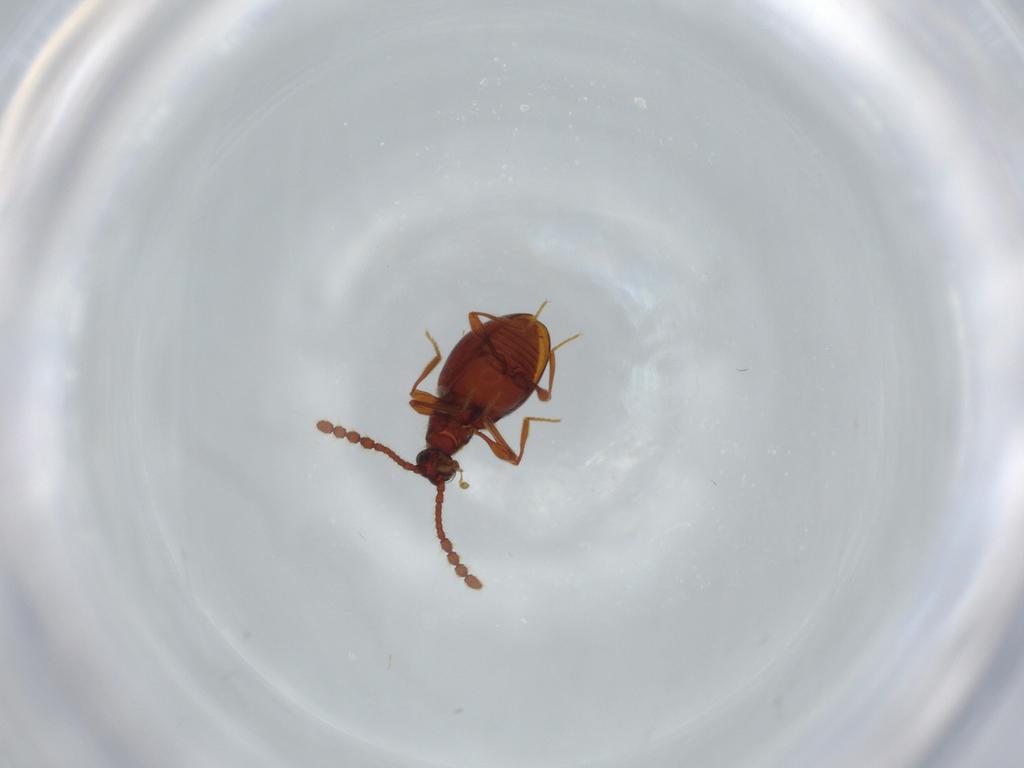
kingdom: Animalia
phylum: Arthropoda
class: Insecta
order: Coleoptera
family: Staphylinidae
